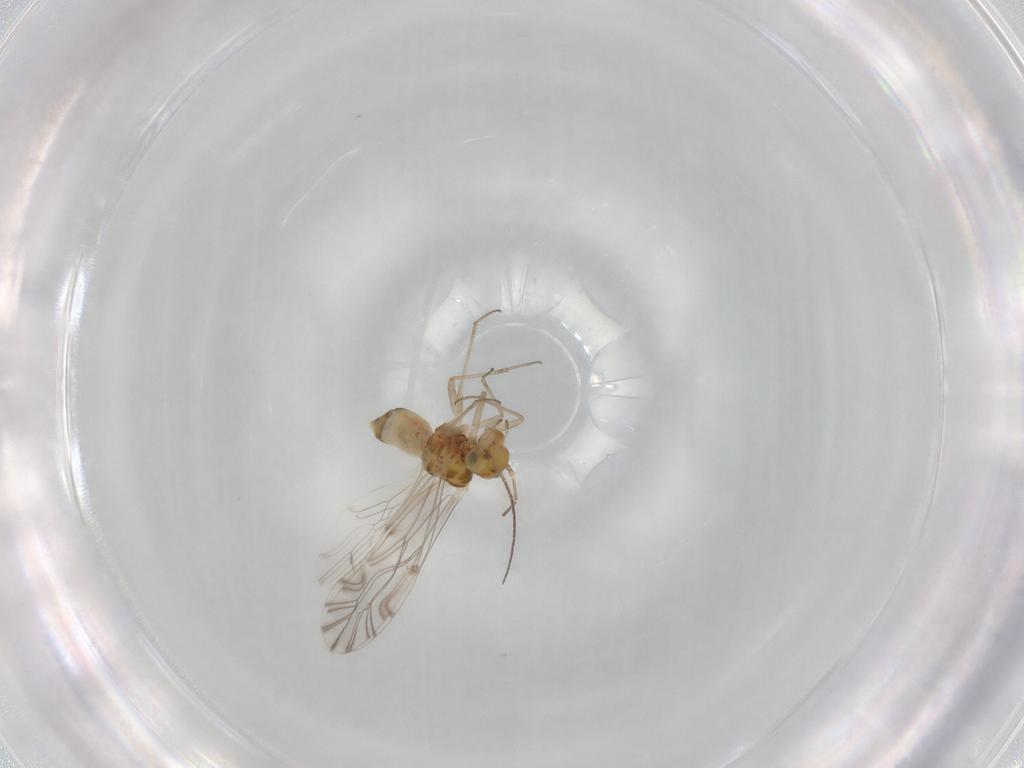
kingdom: Animalia
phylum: Arthropoda
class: Insecta
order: Psocodea
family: Lachesillidae
